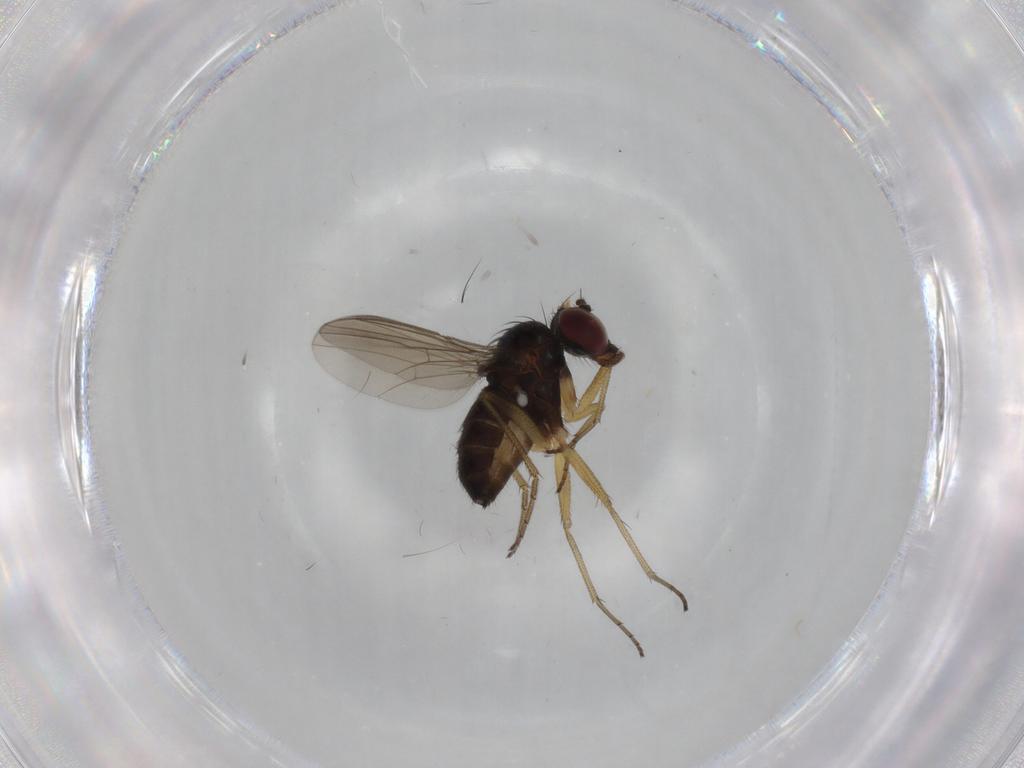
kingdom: Animalia
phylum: Arthropoda
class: Insecta
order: Diptera
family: Dolichopodidae
